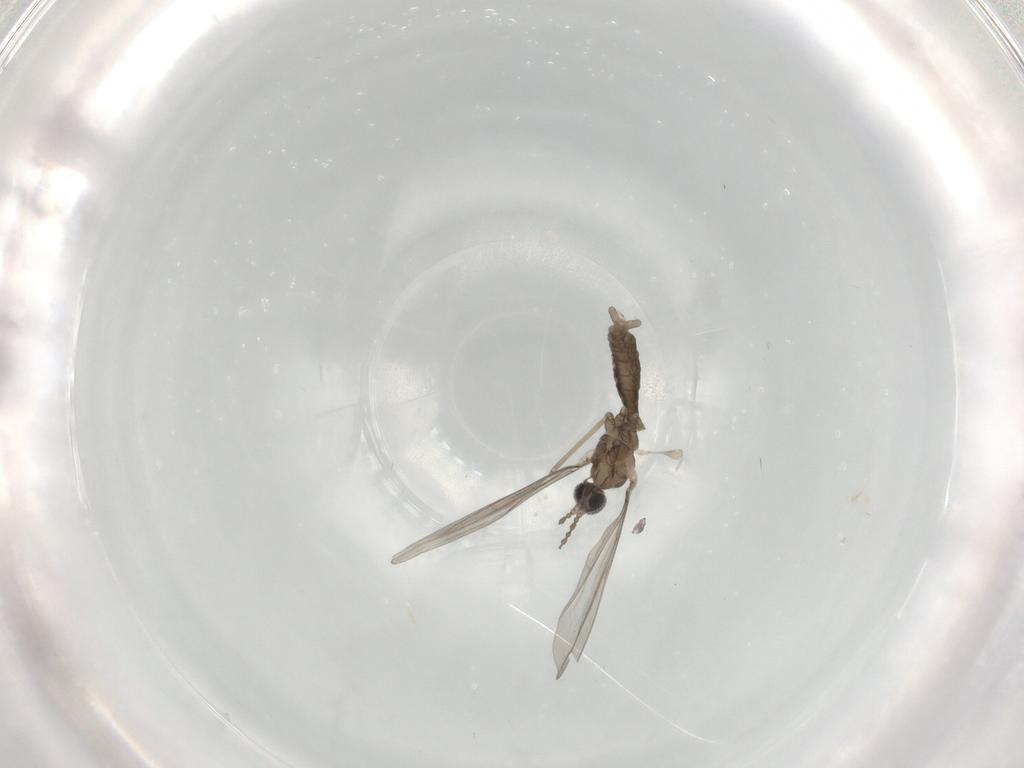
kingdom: Animalia
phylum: Arthropoda
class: Insecta
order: Diptera
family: Cecidomyiidae
